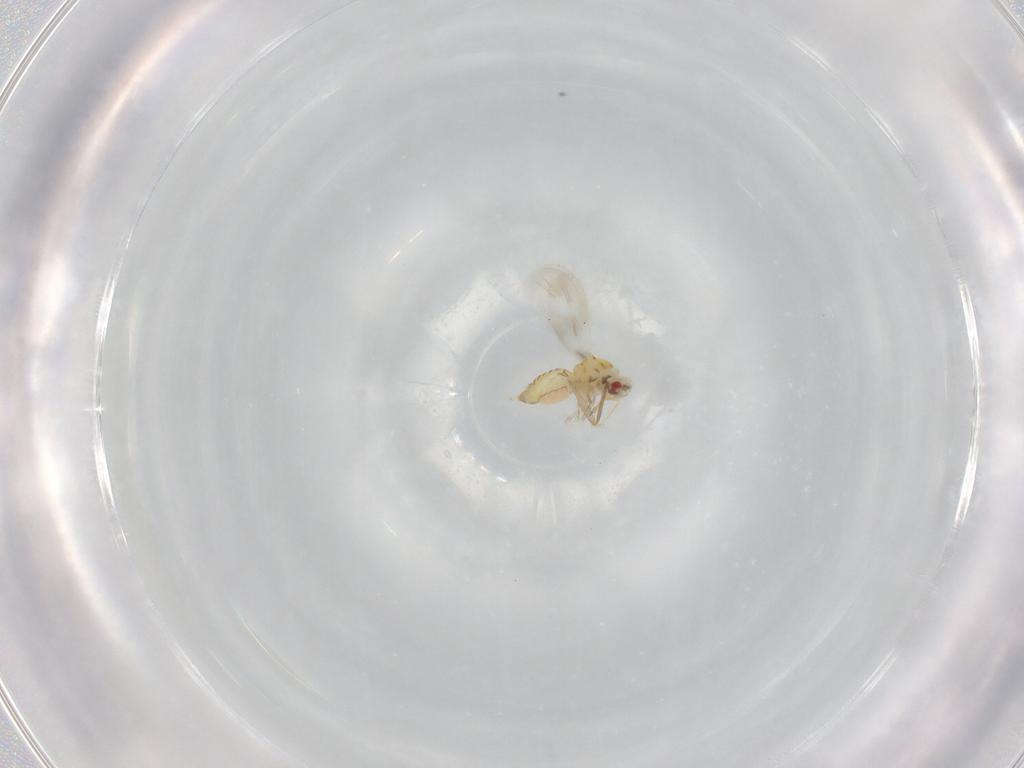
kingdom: Animalia
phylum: Arthropoda
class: Insecta
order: Hemiptera
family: Aleyrodidae
